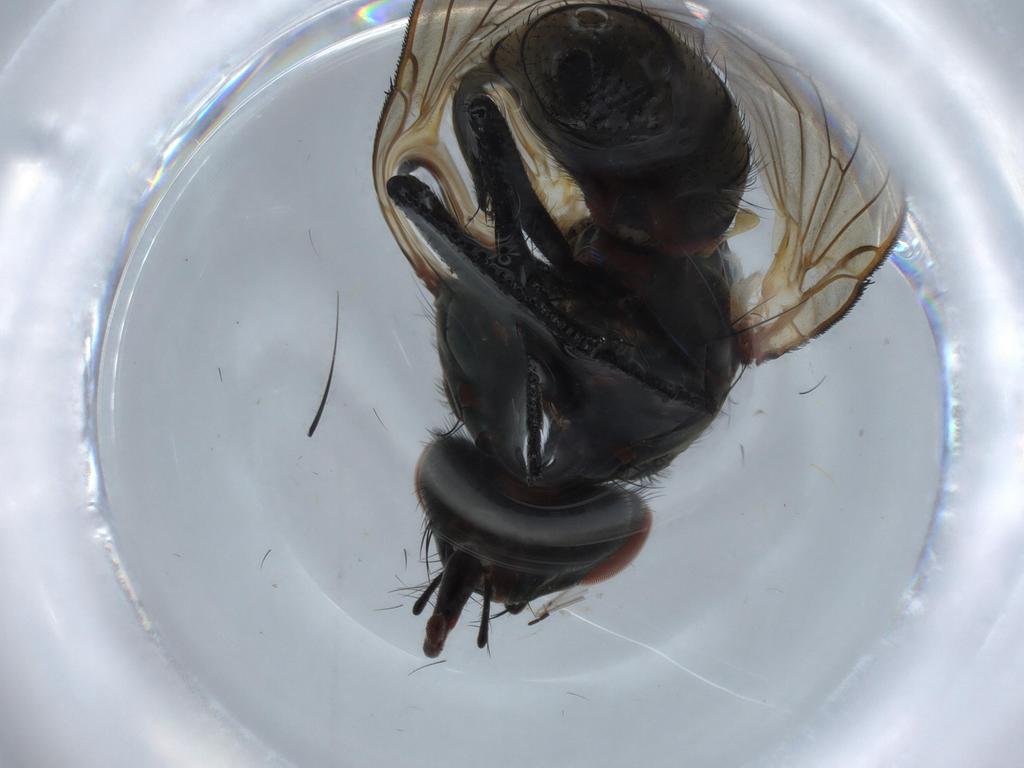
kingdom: Animalia
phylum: Arthropoda
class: Insecta
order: Diptera
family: Anthomyiidae
